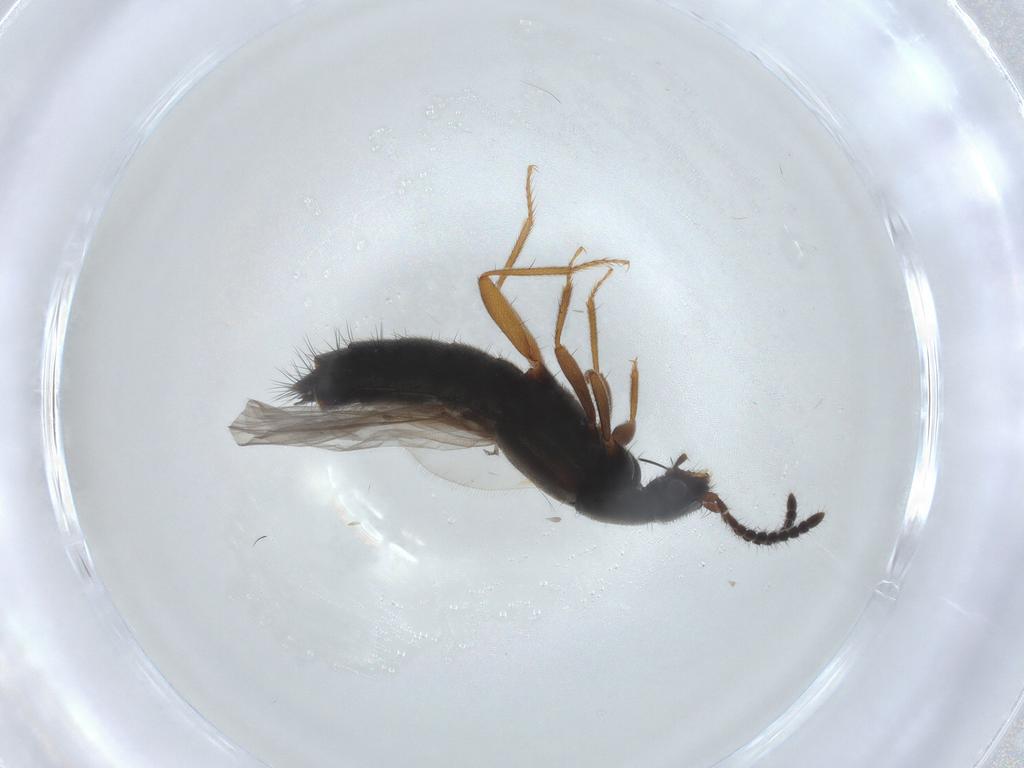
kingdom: Animalia
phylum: Arthropoda
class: Insecta
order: Coleoptera
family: Staphylinidae
